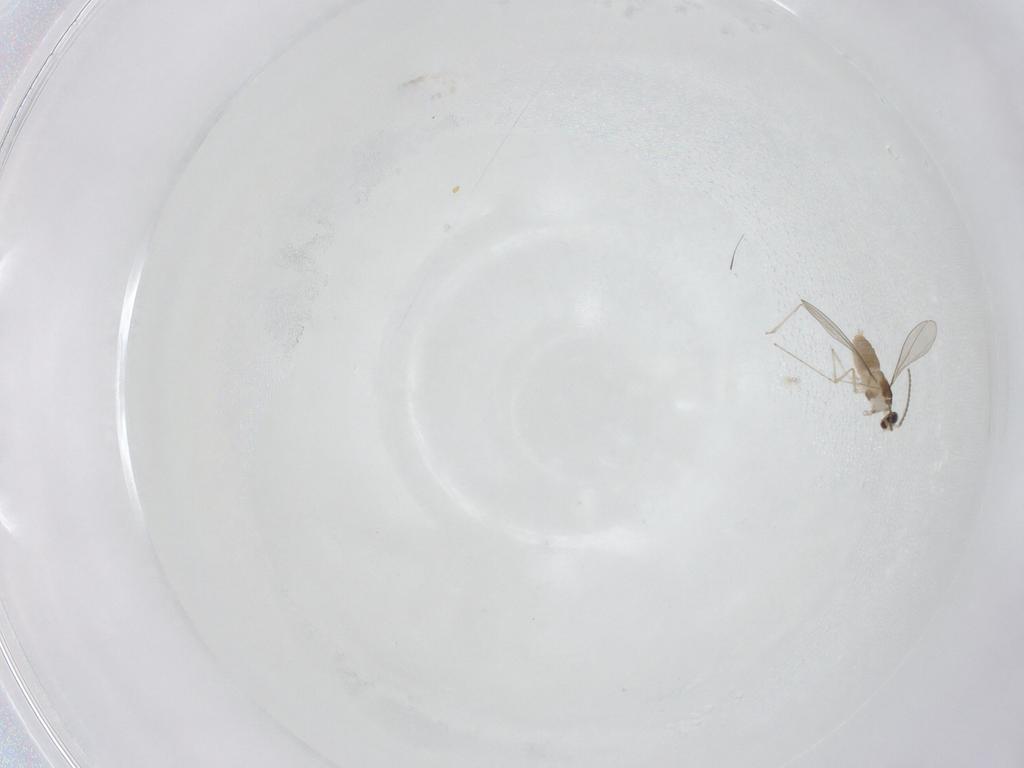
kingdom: Animalia
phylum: Arthropoda
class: Insecta
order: Diptera
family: Cecidomyiidae
